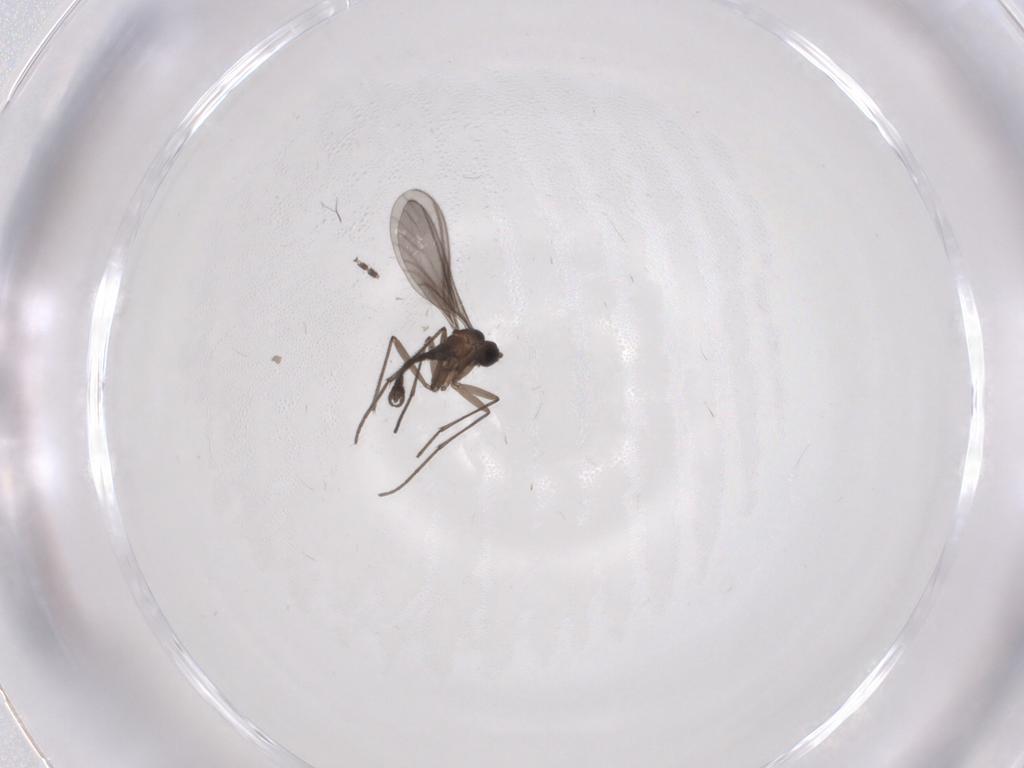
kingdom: Animalia
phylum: Arthropoda
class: Insecta
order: Diptera
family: Sciaridae
